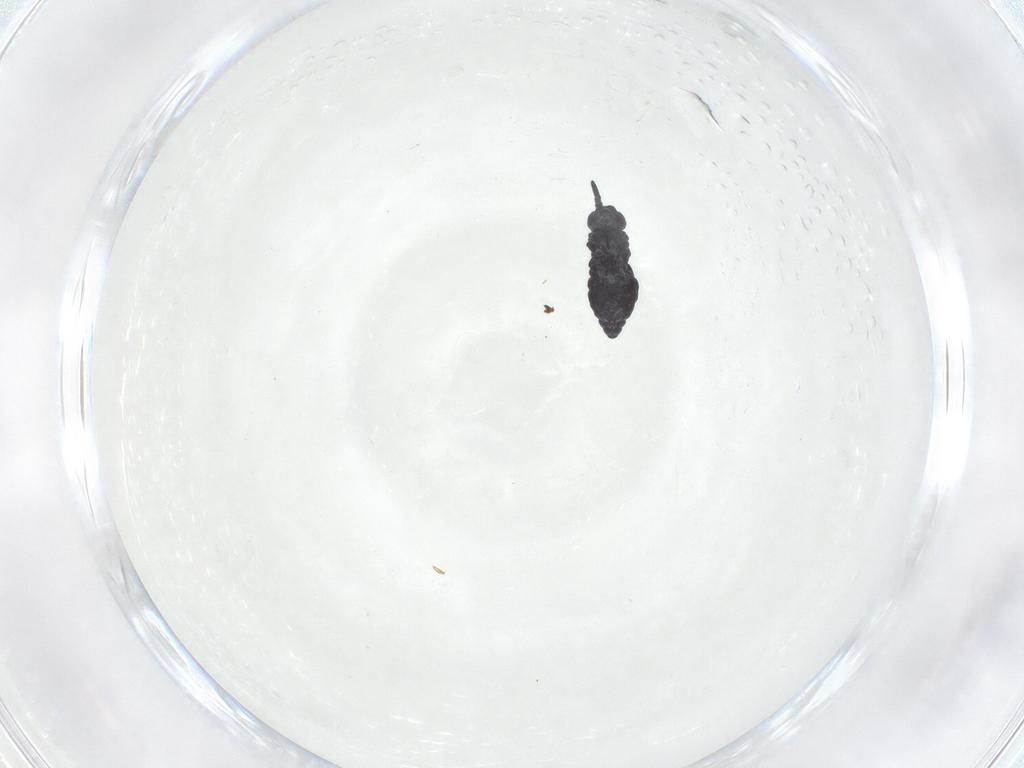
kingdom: Animalia
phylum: Arthropoda
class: Collembola
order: Poduromorpha
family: Hypogastruridae
